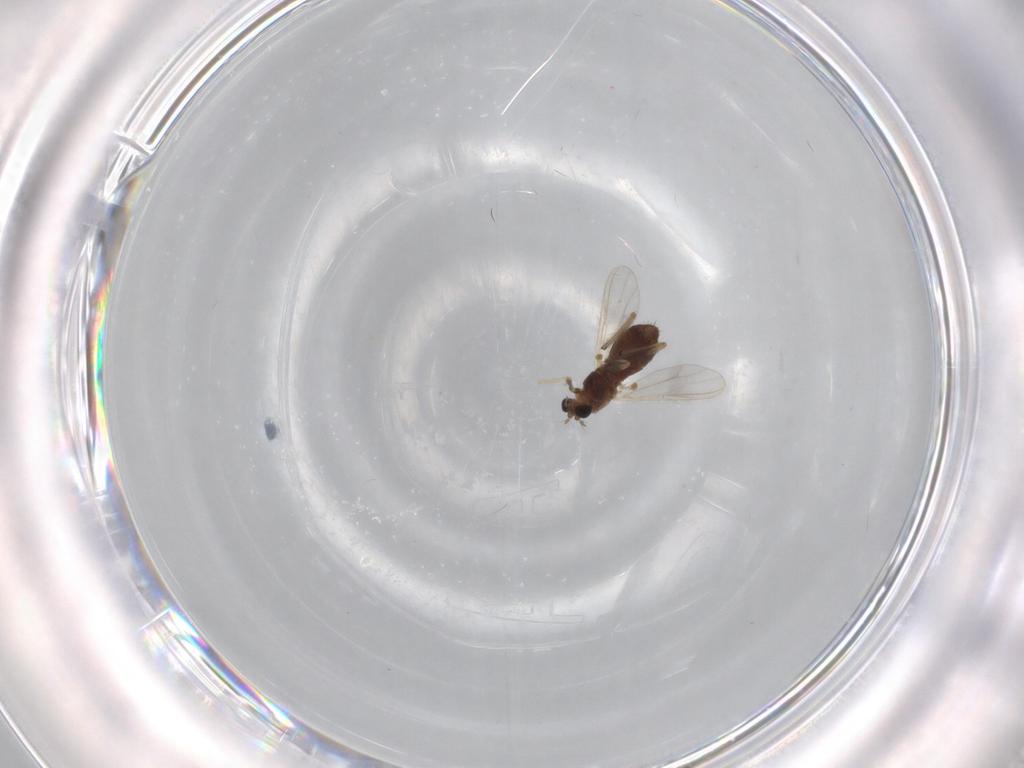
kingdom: Animalia
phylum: Arthropoda
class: Insecta
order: Diptera
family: Chironomidae
